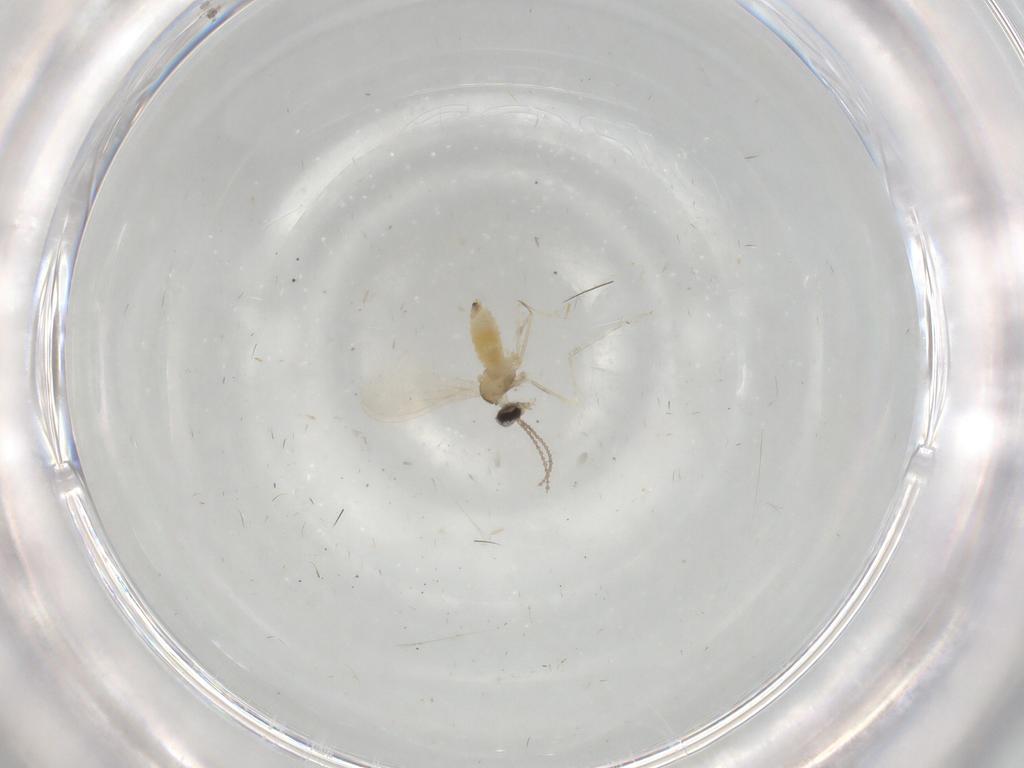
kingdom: Animalia
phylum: Arthropoda
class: Insecta
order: Diptera
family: Cecidomyiidae
